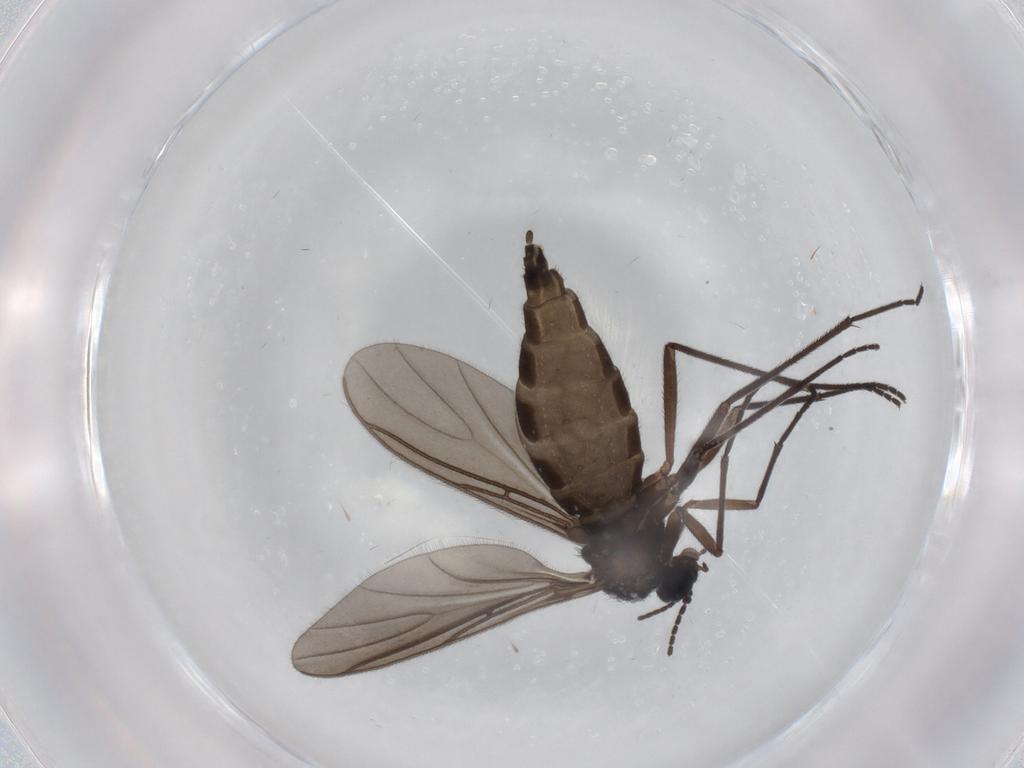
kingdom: Animalia
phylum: Arthropoda
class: Insecta
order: Diptera
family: Sciaridae
